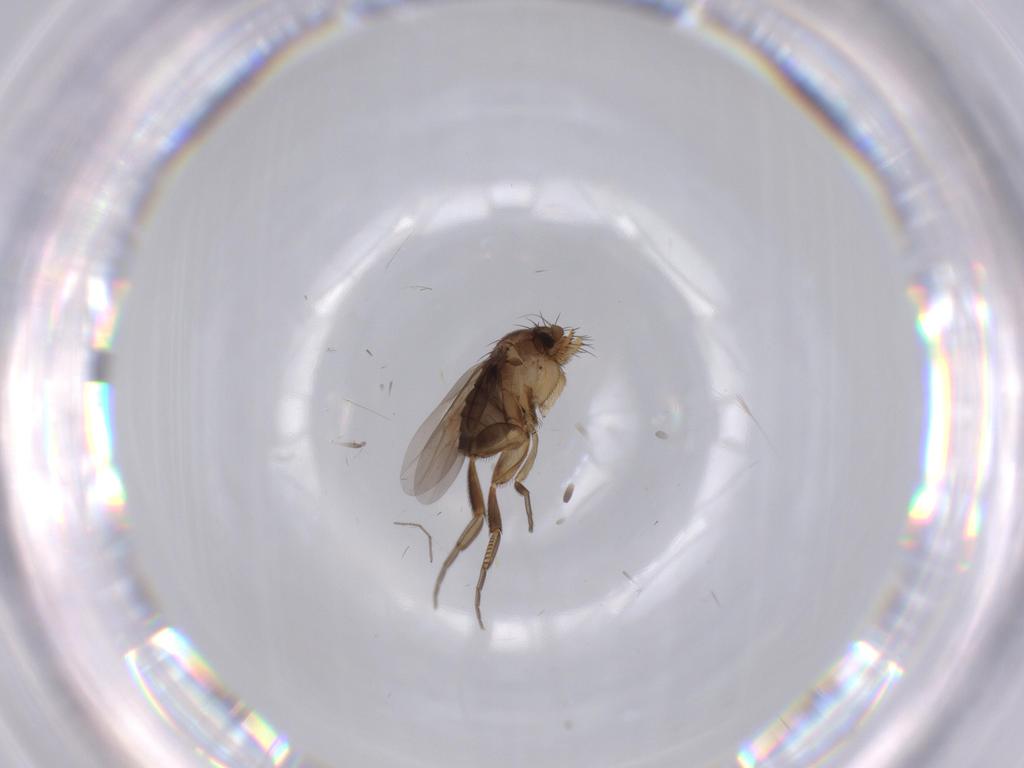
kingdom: Animalia
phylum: Arthropoda
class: Insecta
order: Diptera
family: Chironomidae
